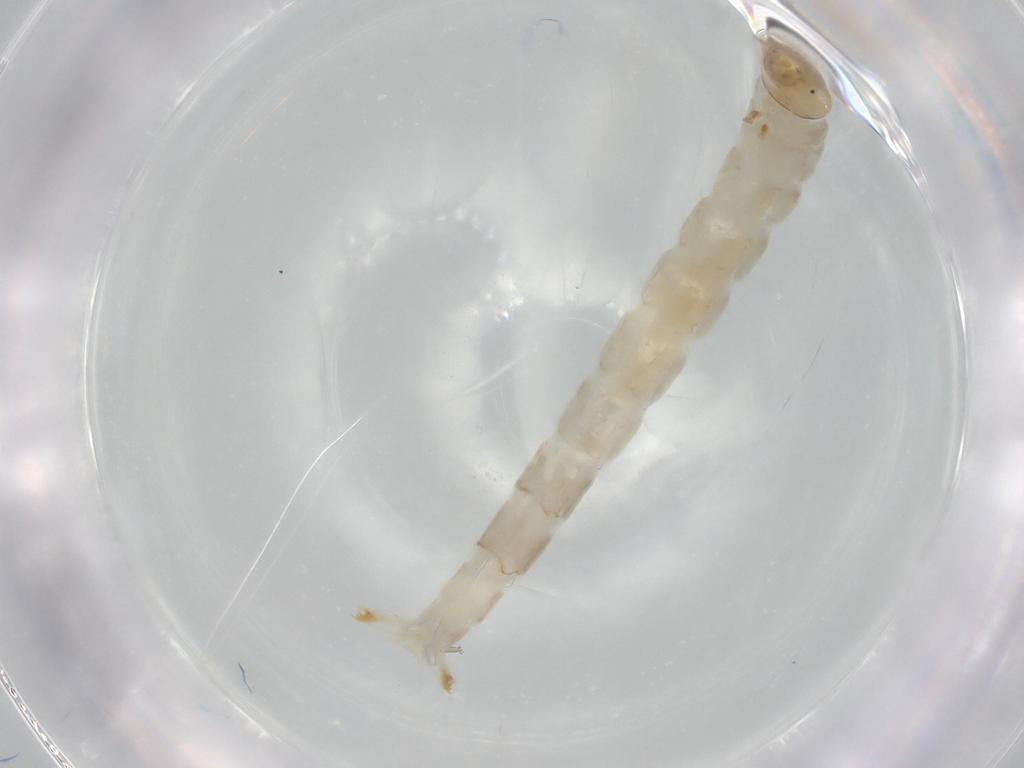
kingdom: Animalia
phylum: Arthropoda
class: Insecta
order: Diptera
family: Chironomidae
